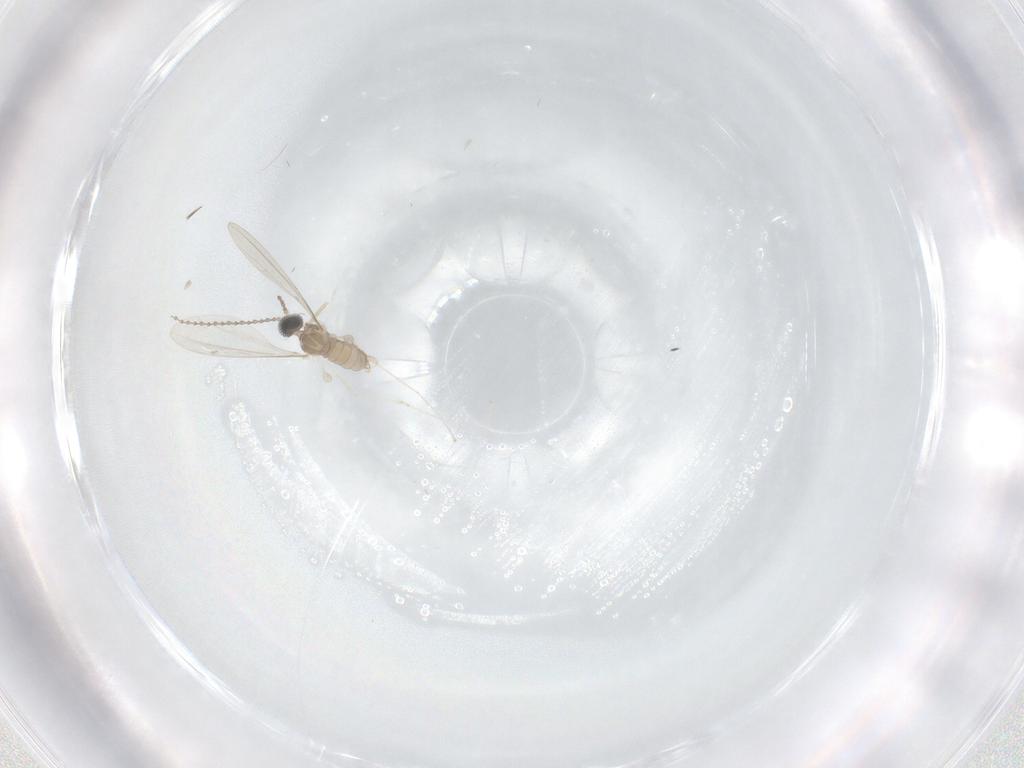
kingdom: Animalia
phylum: Arthropoda
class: Insecta
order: Diptera
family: Cecidomyiidae
